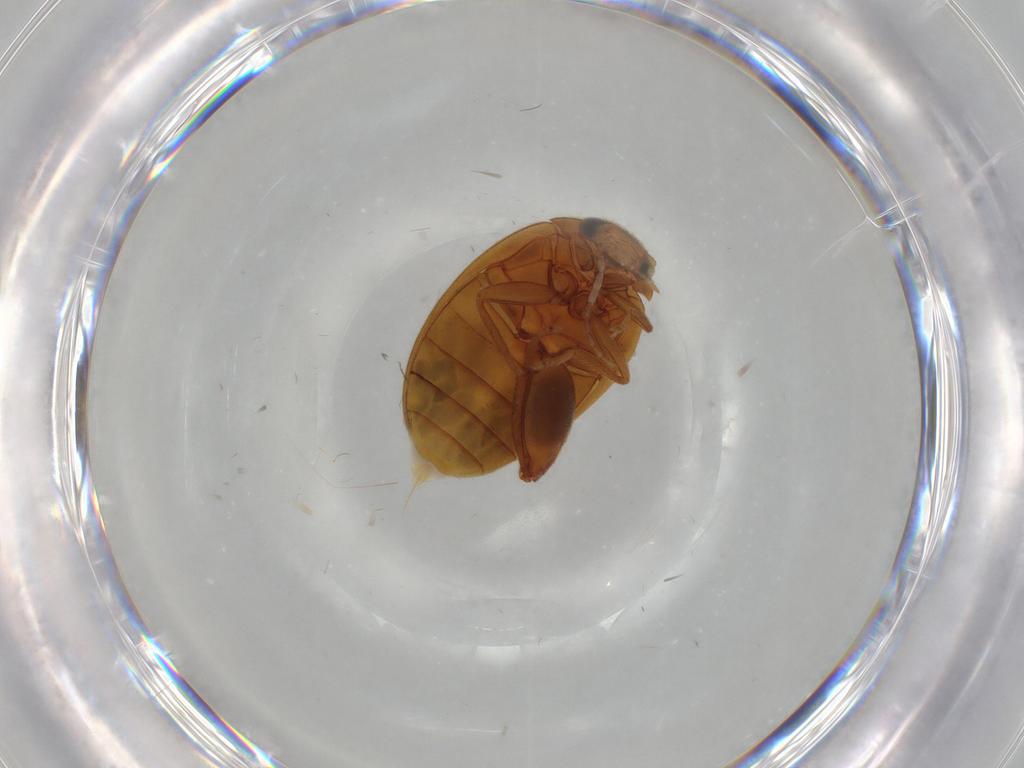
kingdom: Animalia
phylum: Arthropoda
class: Insecta
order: Coleoptera
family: Scirtidae
